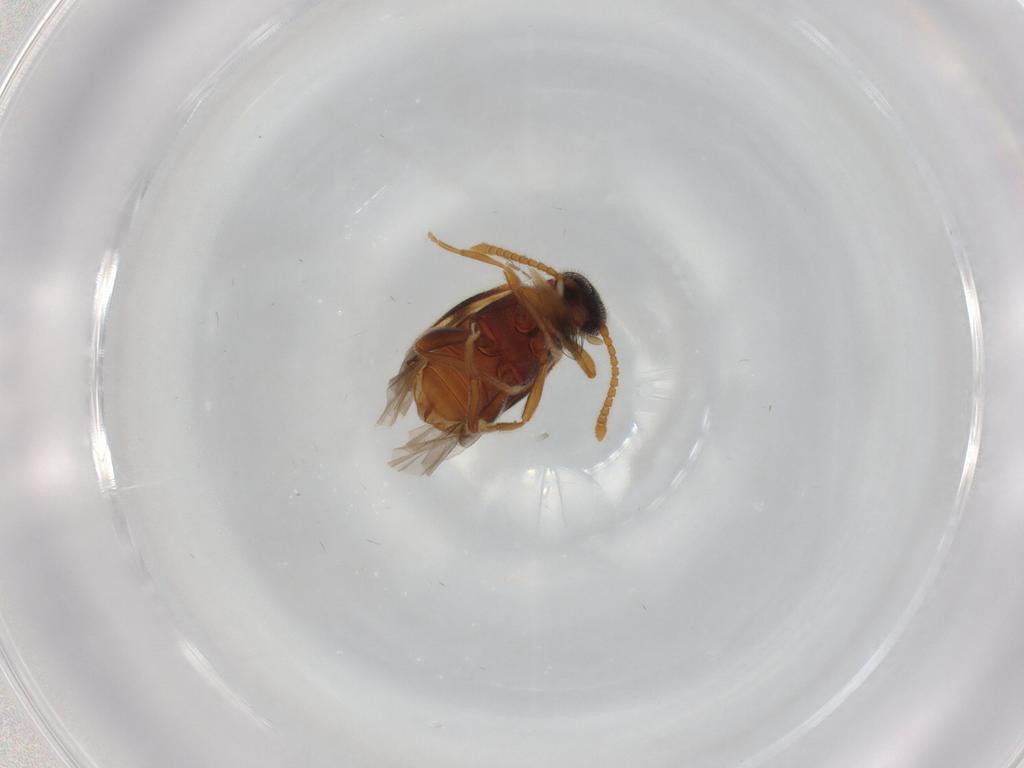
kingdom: Animalia
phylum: Arthropoda
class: Insecta
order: Coleoptera
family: Aderidae
